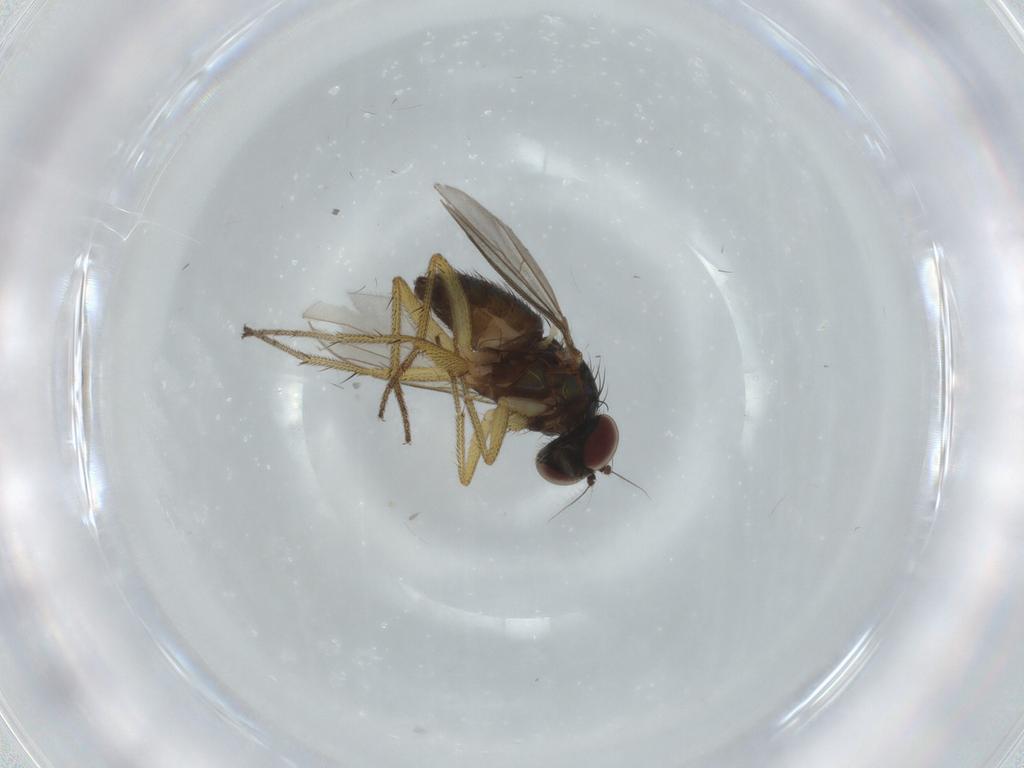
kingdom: Animalia
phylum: Arthropoda
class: Insecta
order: Diptera
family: Dolichopodidae
